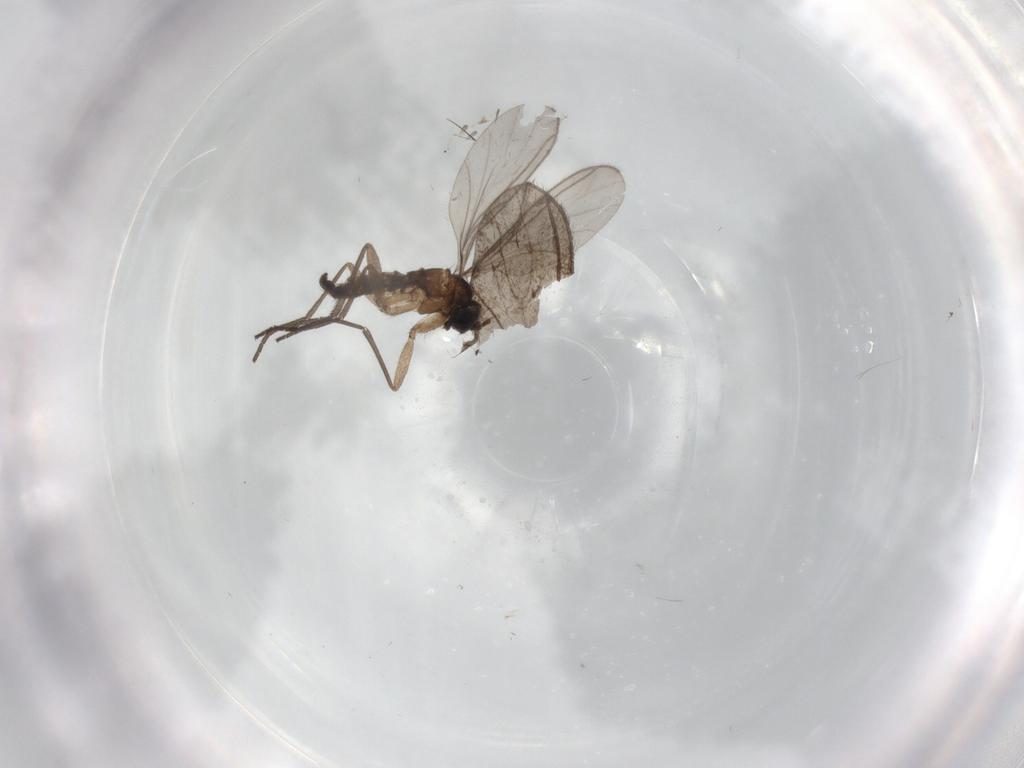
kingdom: Animalia
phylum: Arthropoda
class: Insecta
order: Diptera
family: Sciaridae
